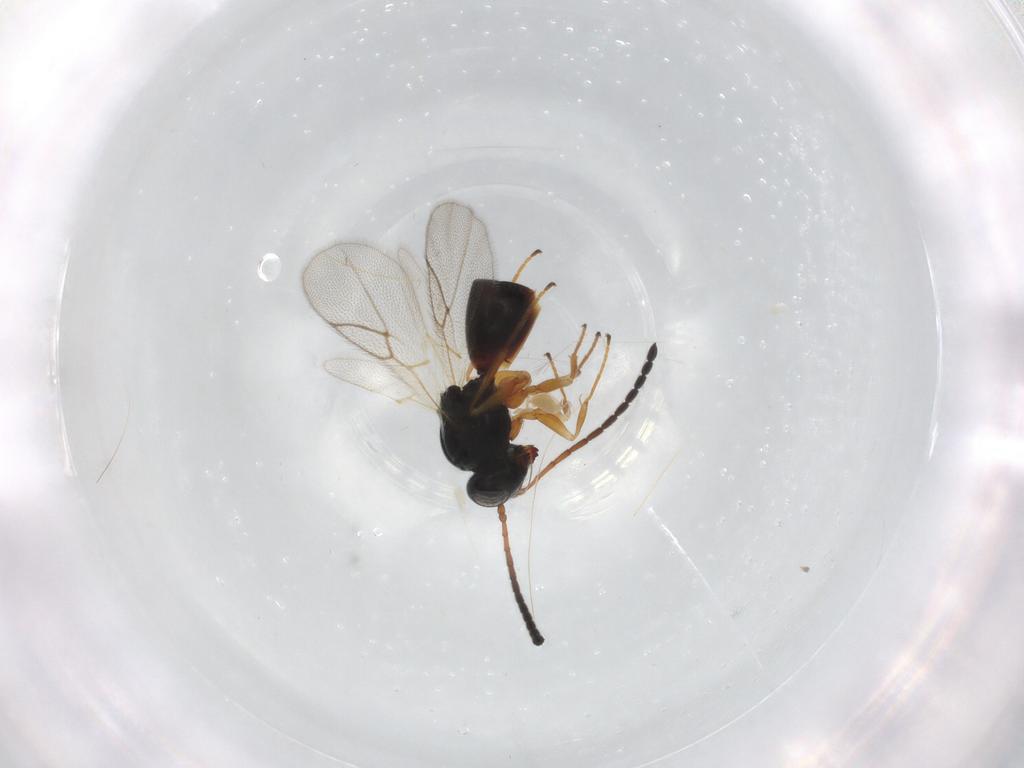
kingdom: Animalia
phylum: Arthropoda
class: Insecta
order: Hymenoptera
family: Figitidae
